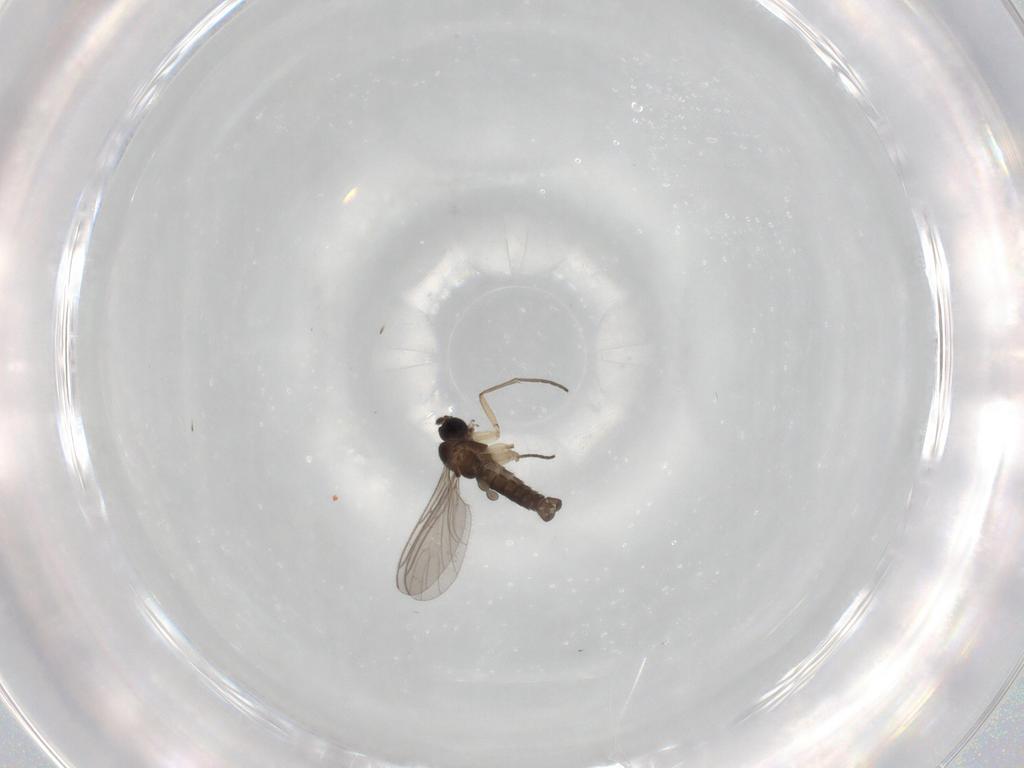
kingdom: Animalia
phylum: Arthropoda
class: Insecta
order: Diptera
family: Sciaridae
